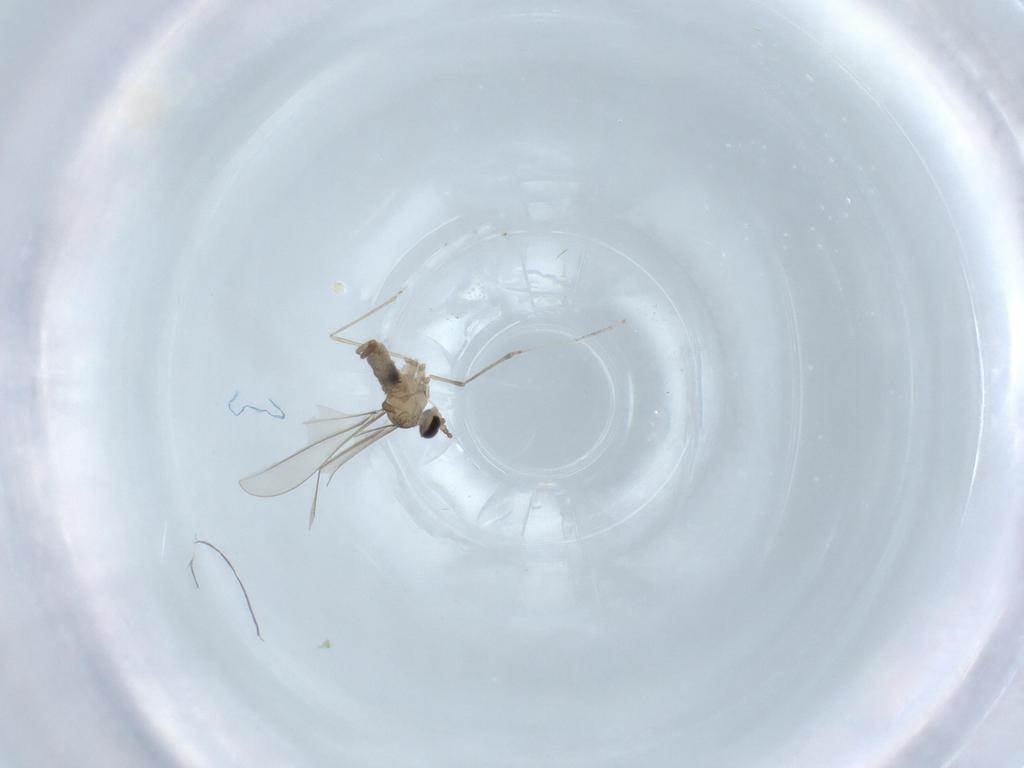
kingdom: Animalia
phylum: Arthropoda
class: Insecta
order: Diptera
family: Cecidomyiidae
